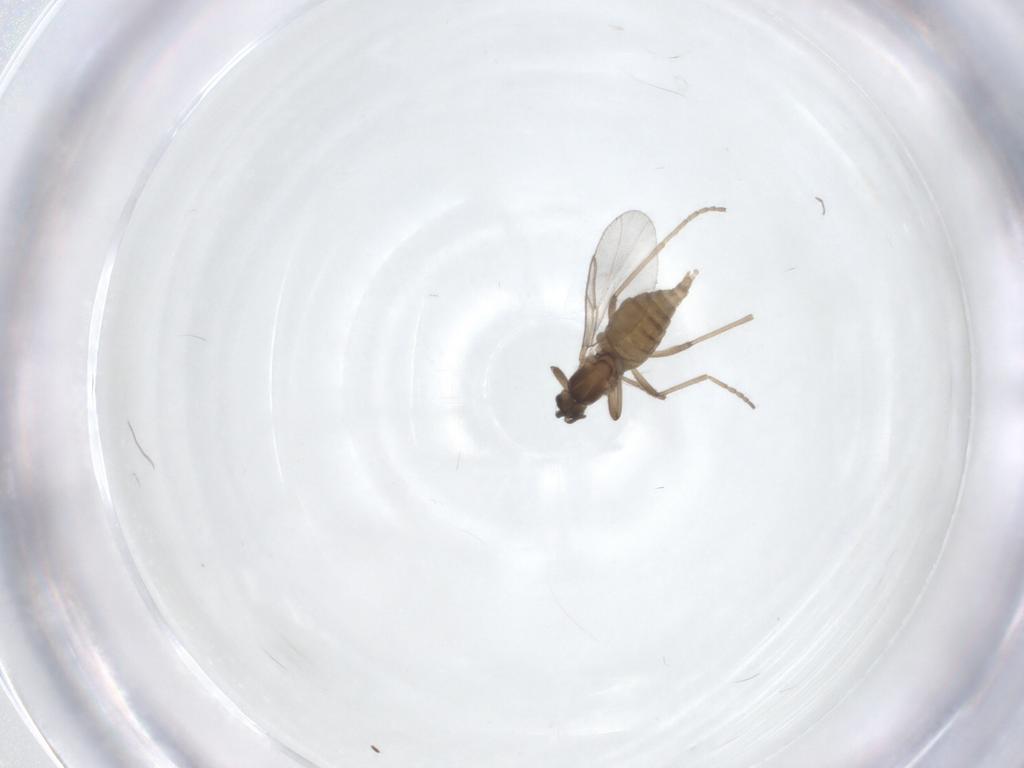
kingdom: Animalia
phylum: Arthropoda
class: Insecta
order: Diptera
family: Cecidomyiidae
